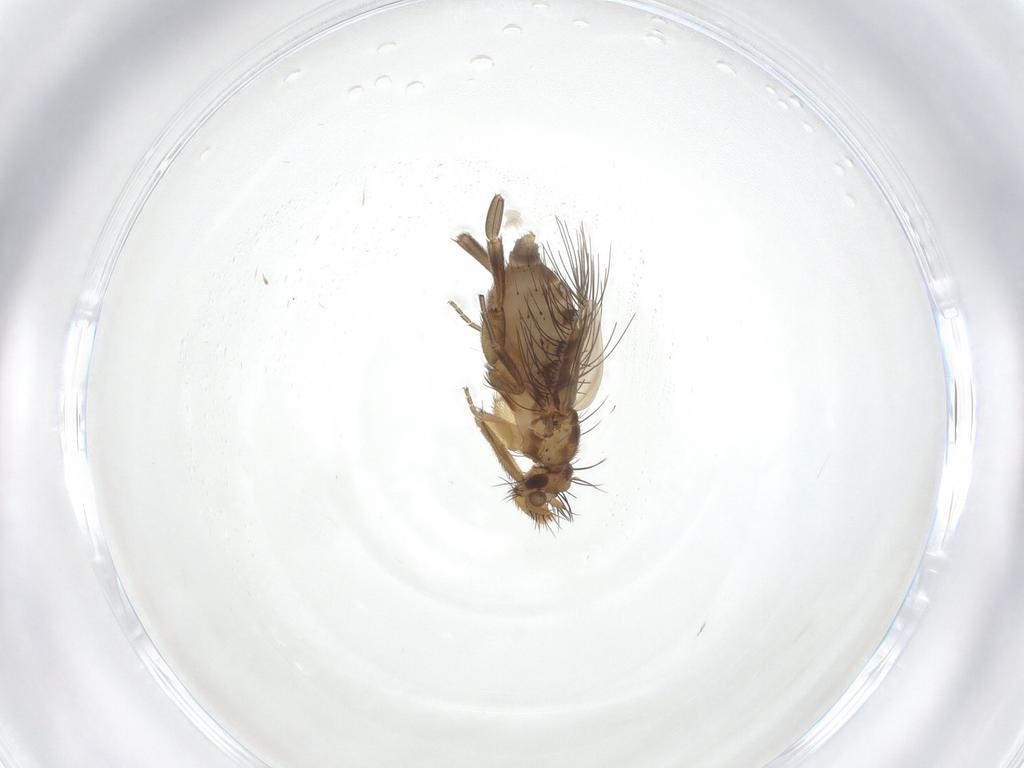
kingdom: Animalia
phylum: Arthropoda
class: Insecta
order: Diptera
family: Phoridae
